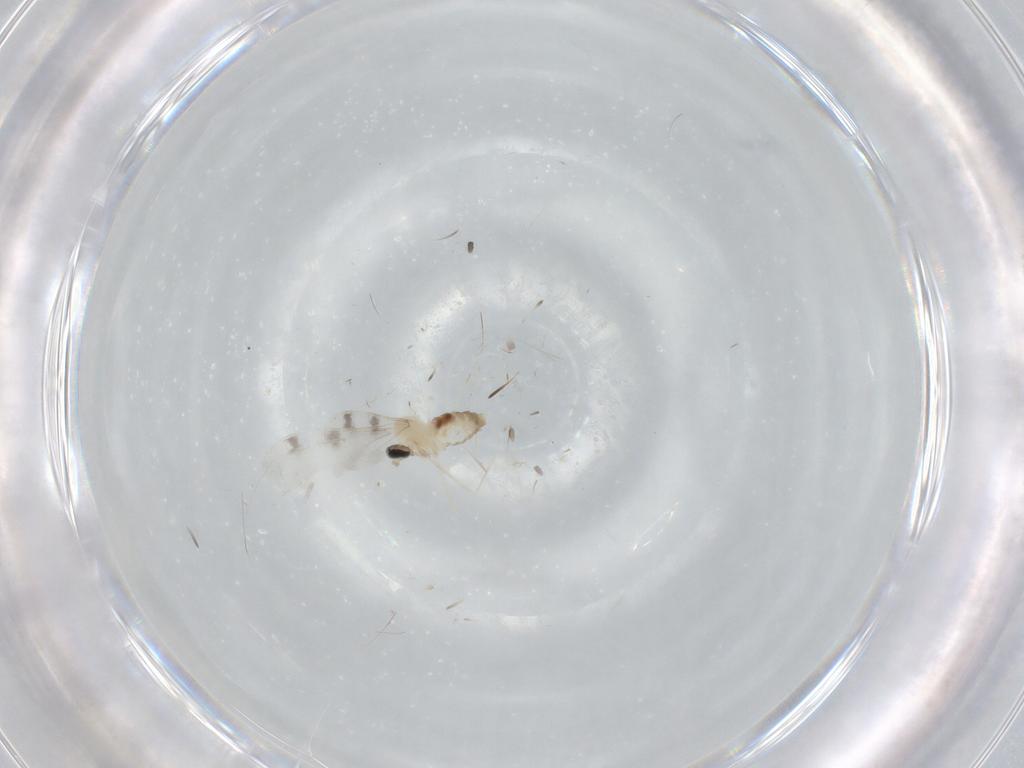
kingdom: Animalia
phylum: Arthropoda
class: Insecta
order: Diptera
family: Cecidomyiidae
